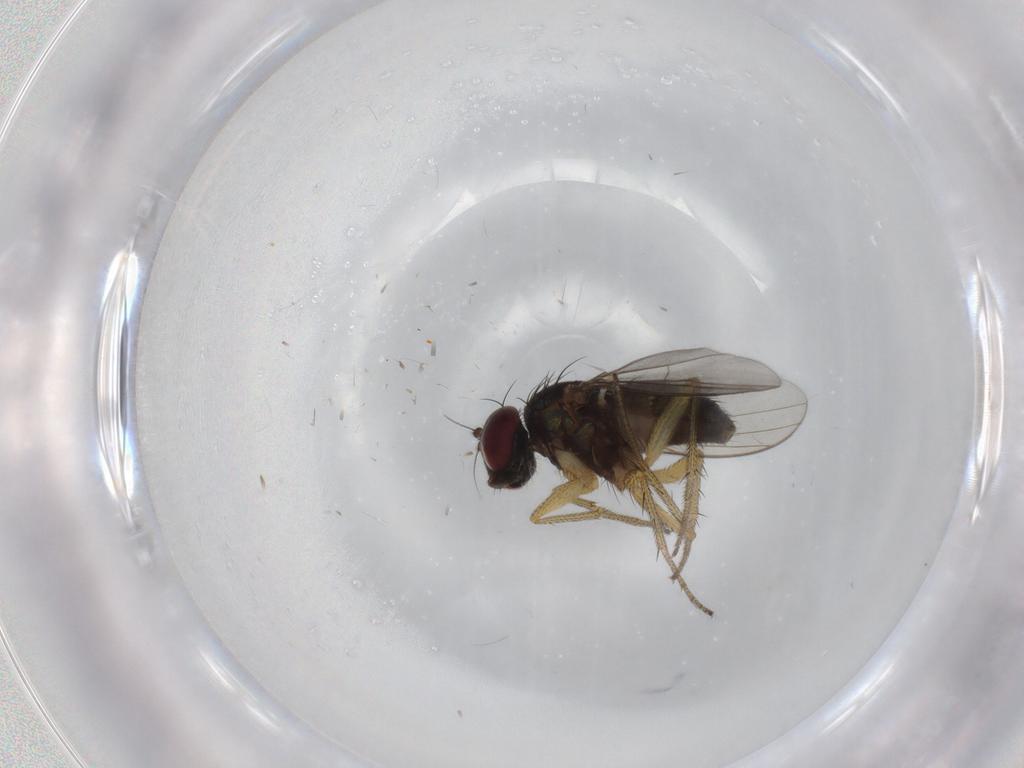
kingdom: Animalia
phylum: Arthropoda
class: Insecta
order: Diptera
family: Dolichopodidae
